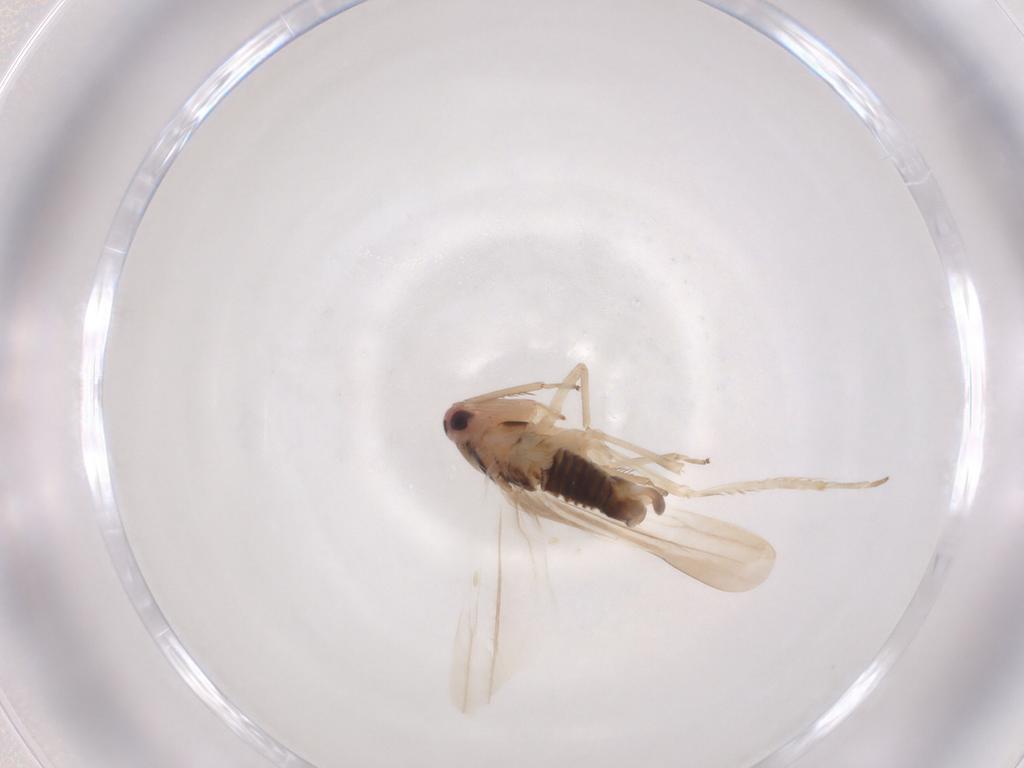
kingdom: Animalia
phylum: Arthropoda
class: Insecta
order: Hemiptera
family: Cicadellidae
